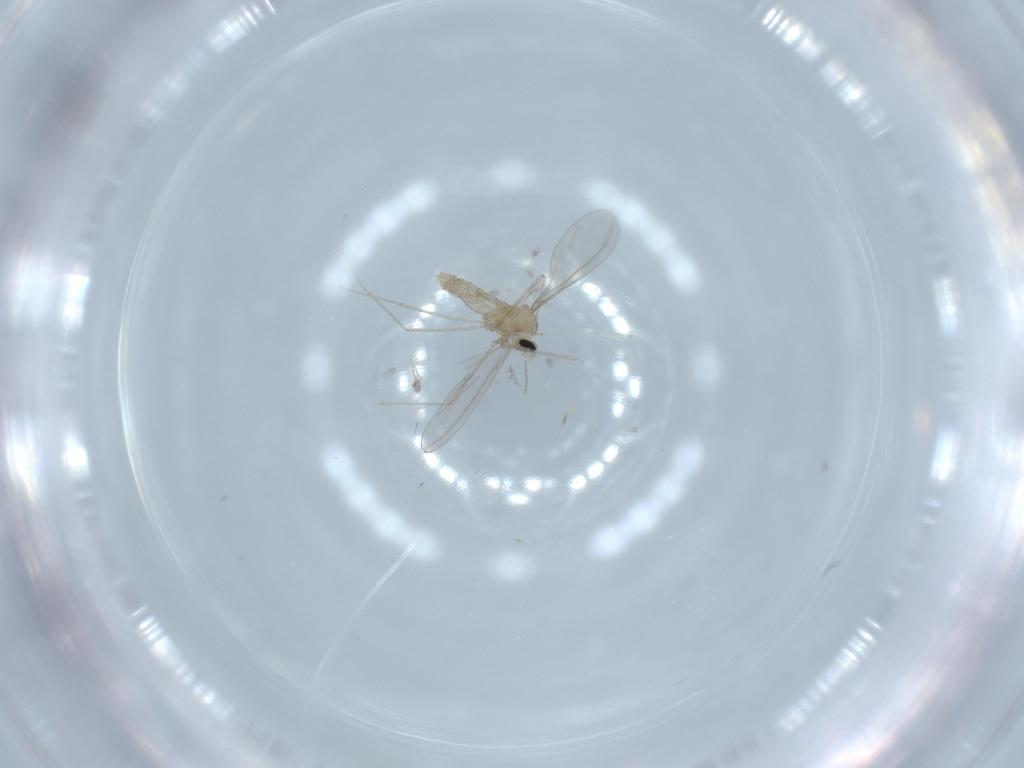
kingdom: Animalia
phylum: Arthropoda
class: Insecta
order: Diptera
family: Cecidomyiidae
